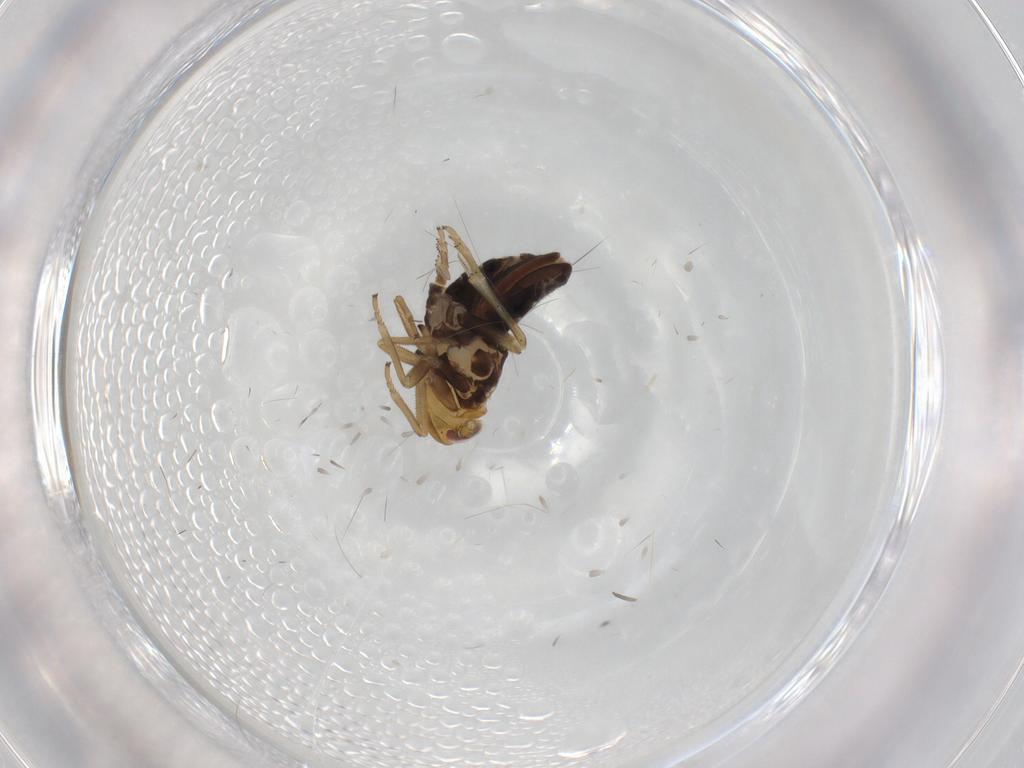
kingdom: Animalia
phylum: Arthropoda
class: Insecta
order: Hemiptera
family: Delphacidae
